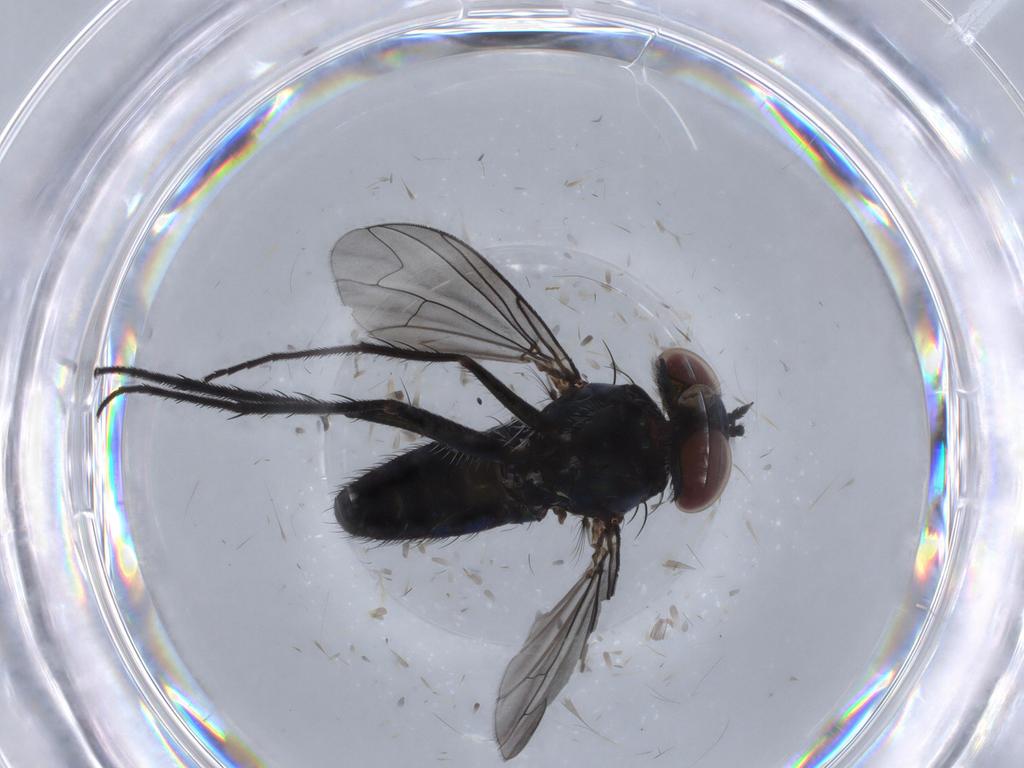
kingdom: Animalia
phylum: Arthropoda
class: Insecta
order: Diptera
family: Dolichopodidae
